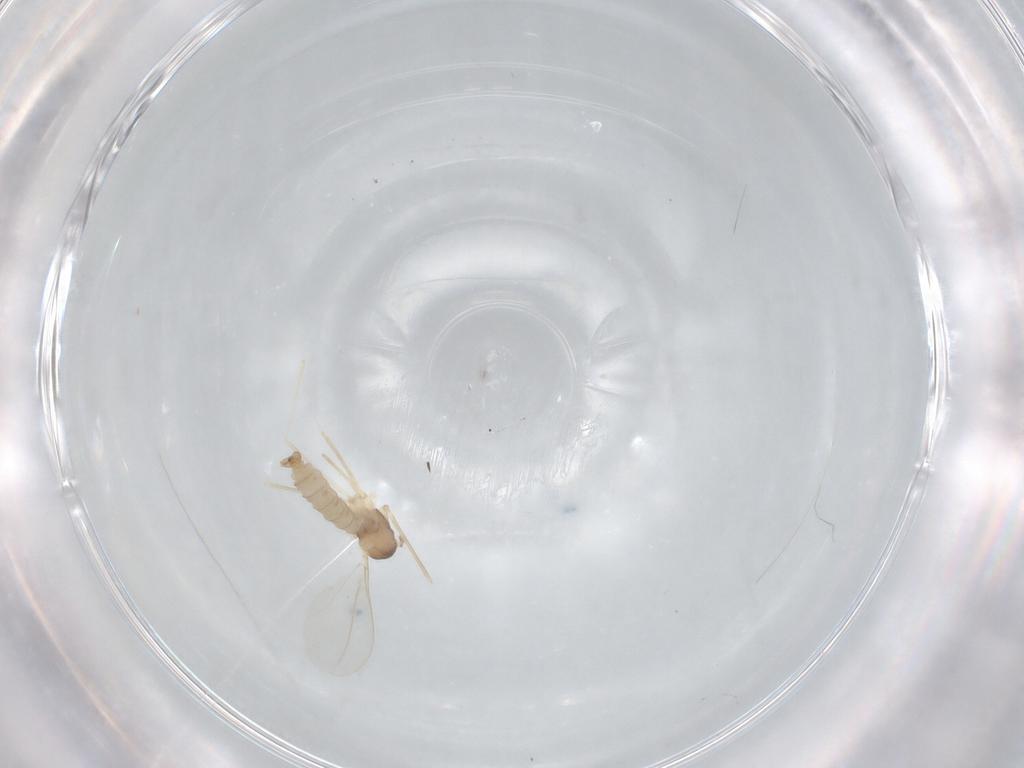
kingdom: Animalia
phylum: Arthropoda
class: Insecta
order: Diptera
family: Cecidomyiidae
